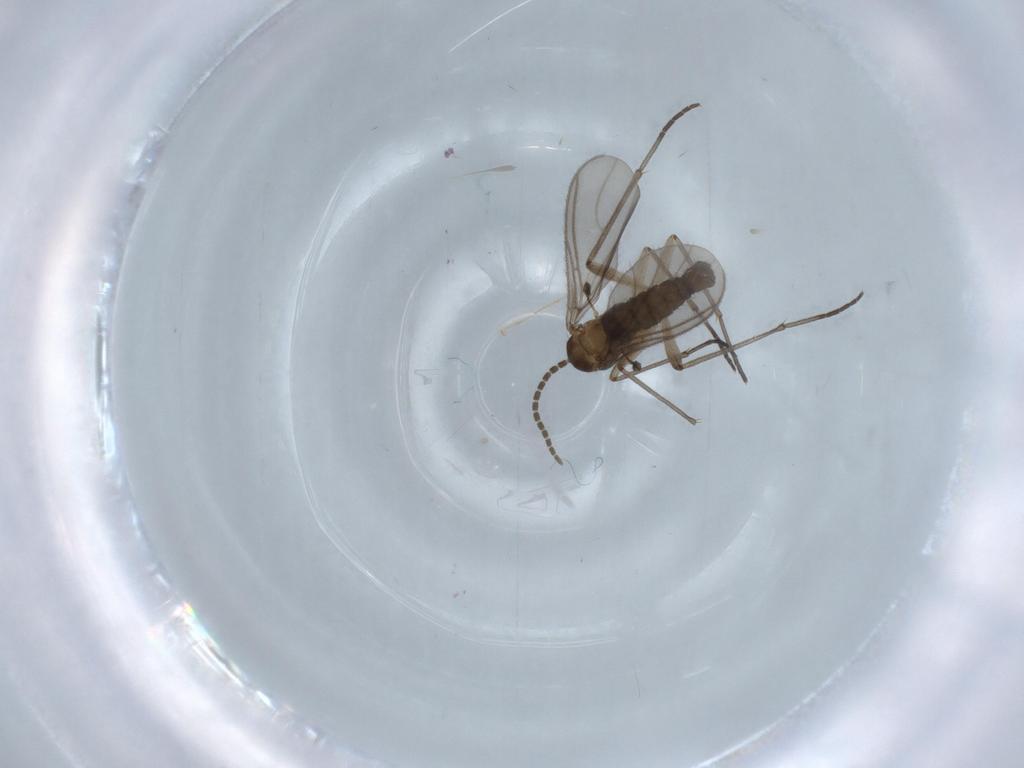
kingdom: Animalia
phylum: Arthropoda
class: Insecta
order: Diptera
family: Sciaridae
